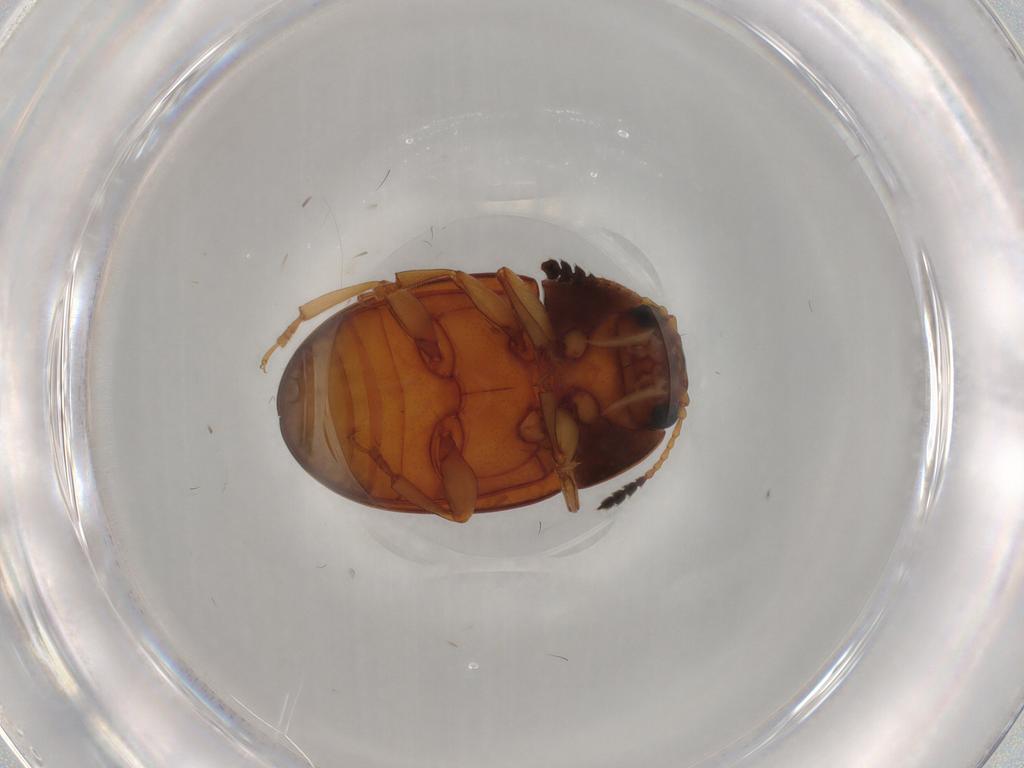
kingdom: Animalia
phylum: Arthropoda
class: Insecta
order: Coleoptera
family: Erotylidae
